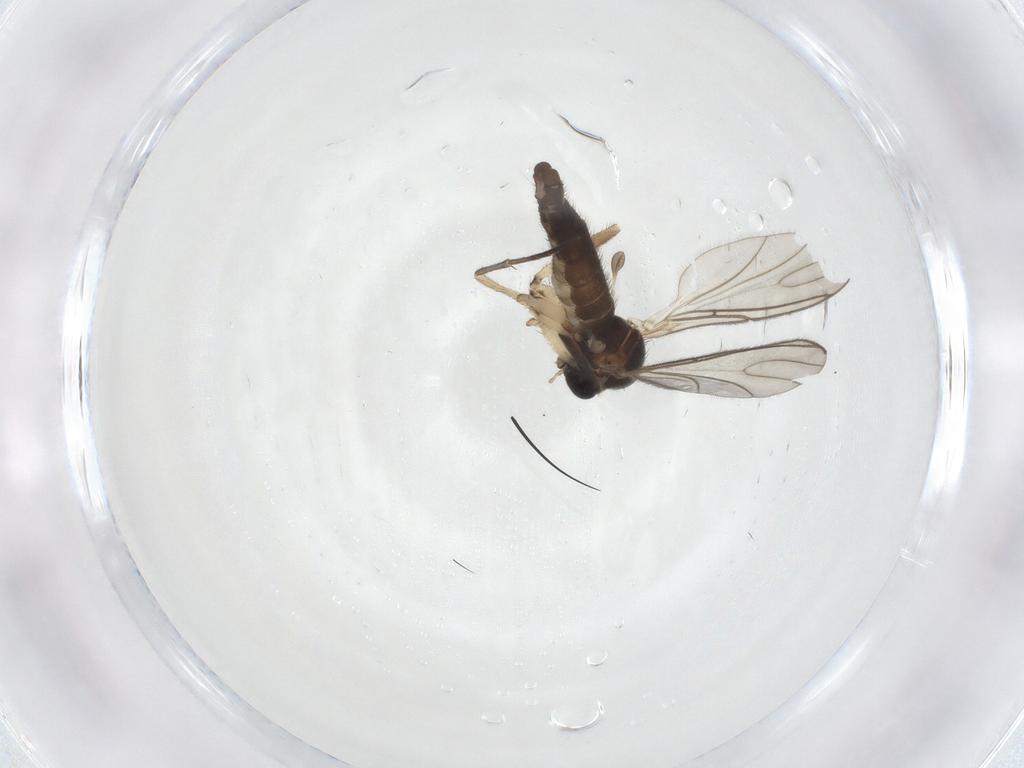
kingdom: Animalia
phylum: Arthropoda
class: Insecta
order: Diptera
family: Sciaridae
